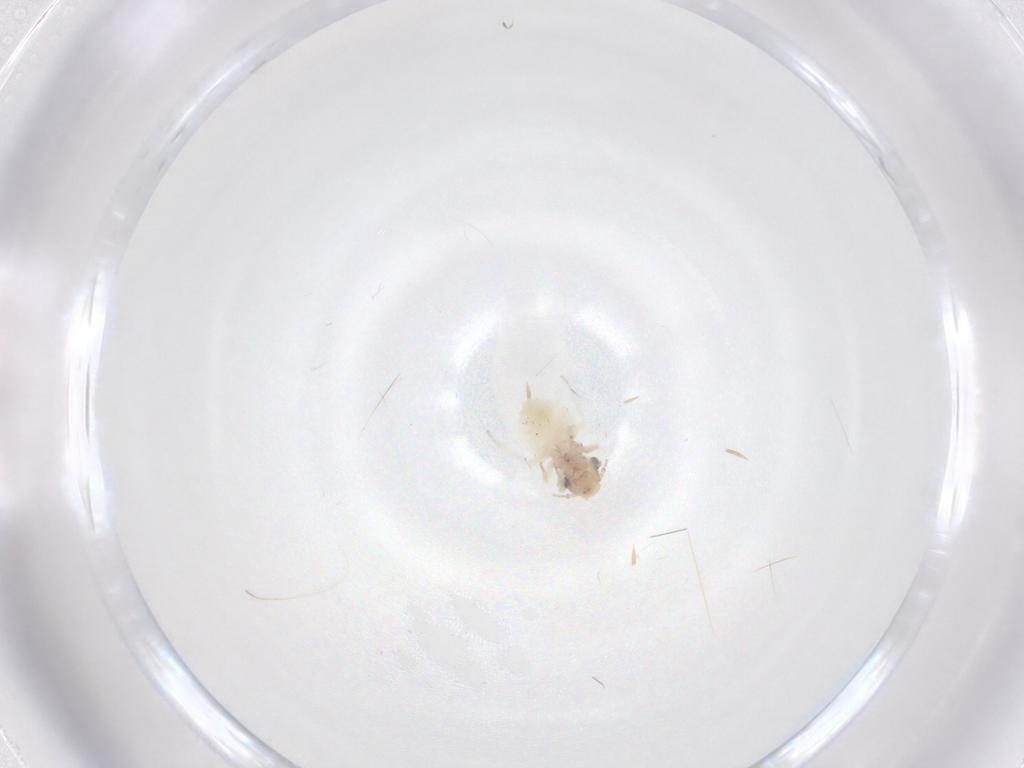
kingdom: Animalia
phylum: Arthropoda
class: Insecta
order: Psocodea
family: Trogiidae
